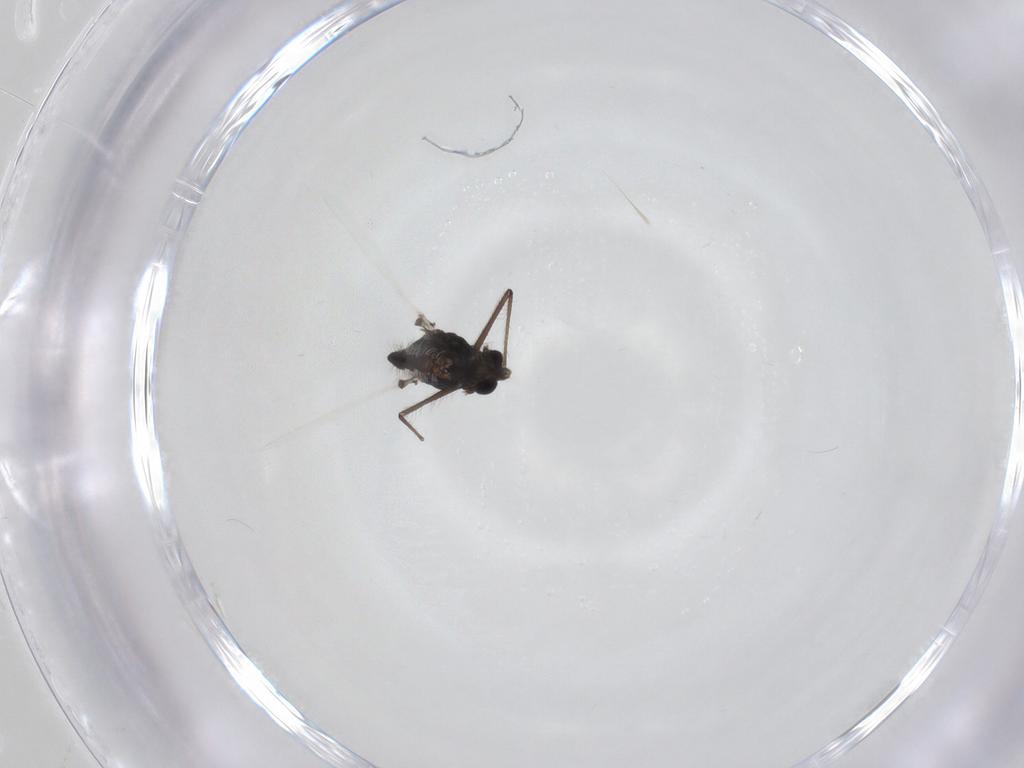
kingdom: Animalia
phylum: Arthropoda
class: Insecta
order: Diptera
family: Chironomidae
